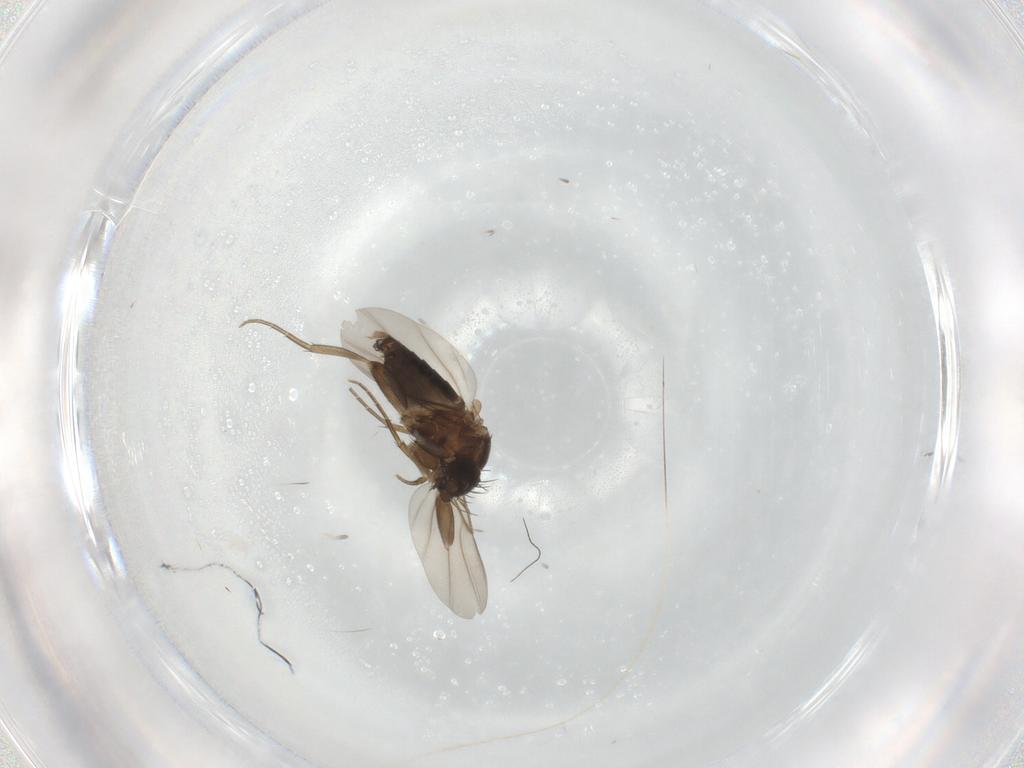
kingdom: Animalia
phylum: Arthropoda
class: Insecta
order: Diptera
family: Phoridae
